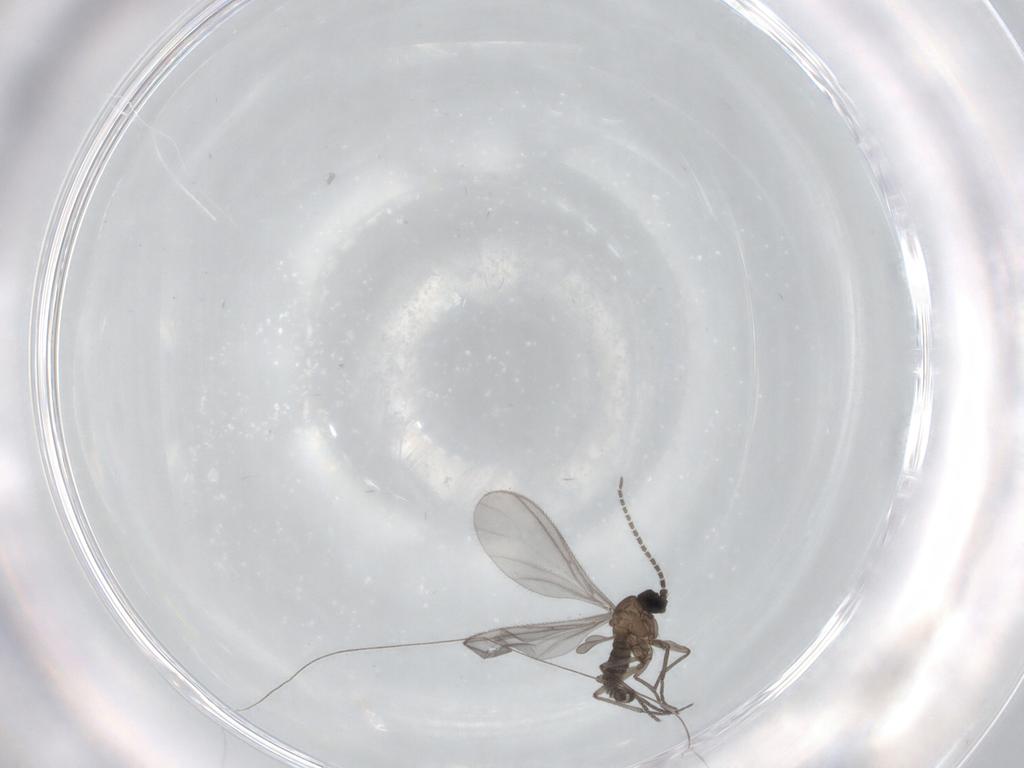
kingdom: Animalia
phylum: Arthropoda
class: Insecta
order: Diptera
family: Sciaridae
